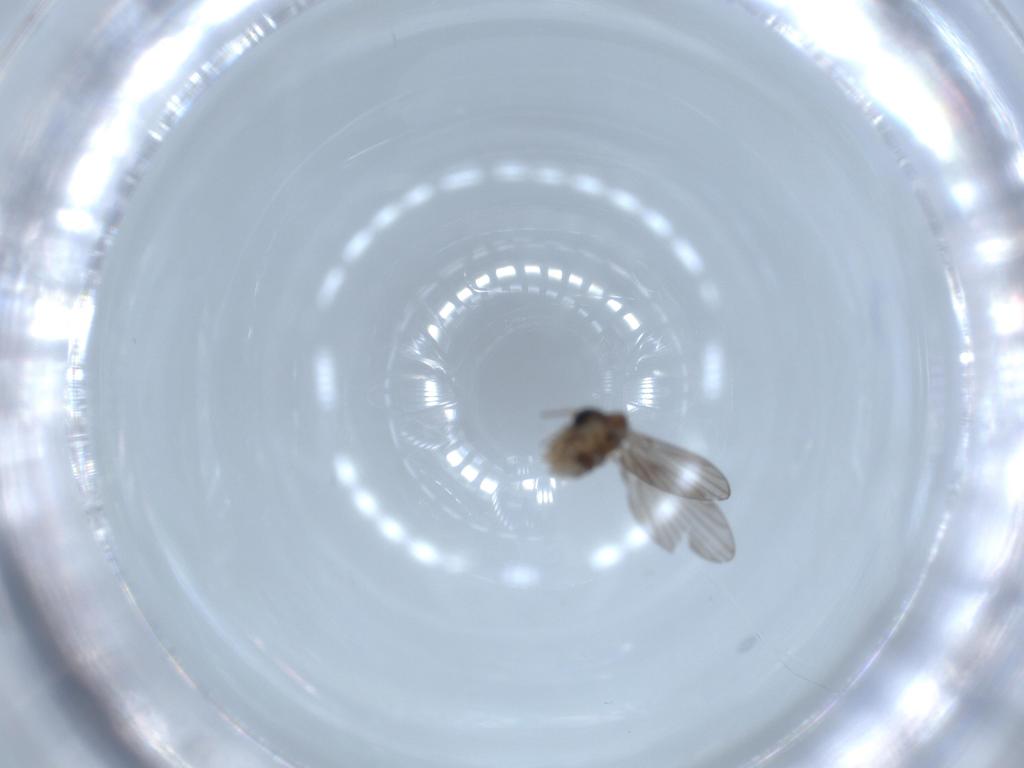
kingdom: Animalia
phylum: Arthropoda
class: Insecta
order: Diptera
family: Psychodidae
